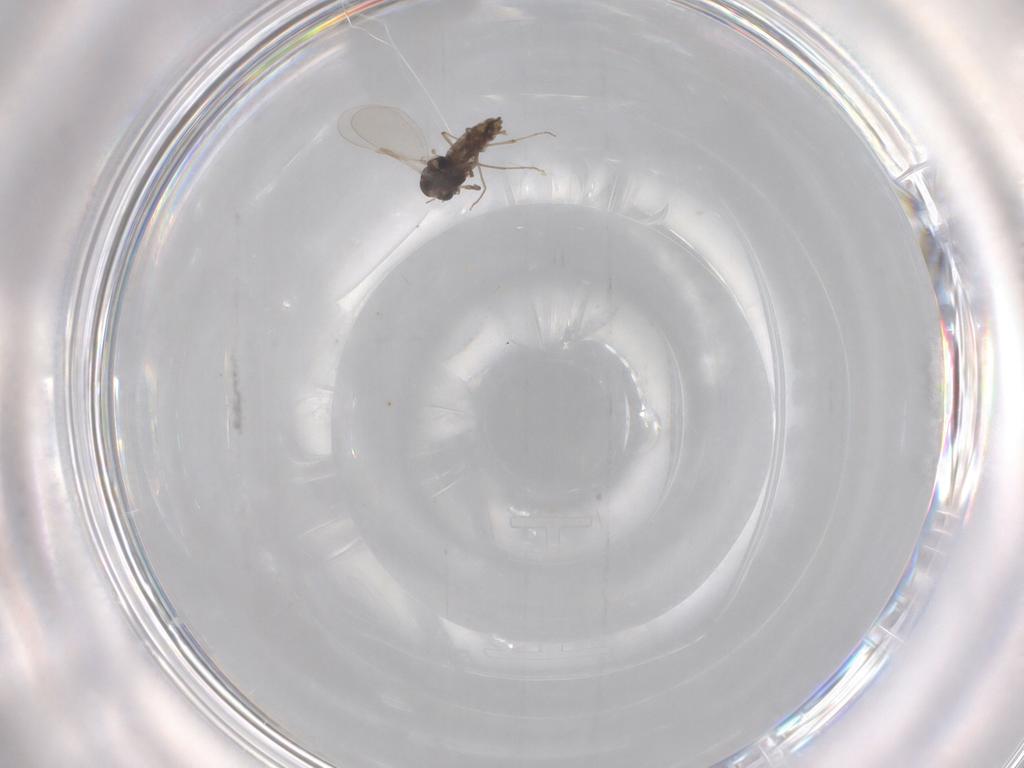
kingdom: Animalia
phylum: Arthropoda
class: Insecta
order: Diptera
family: Chironomidae
